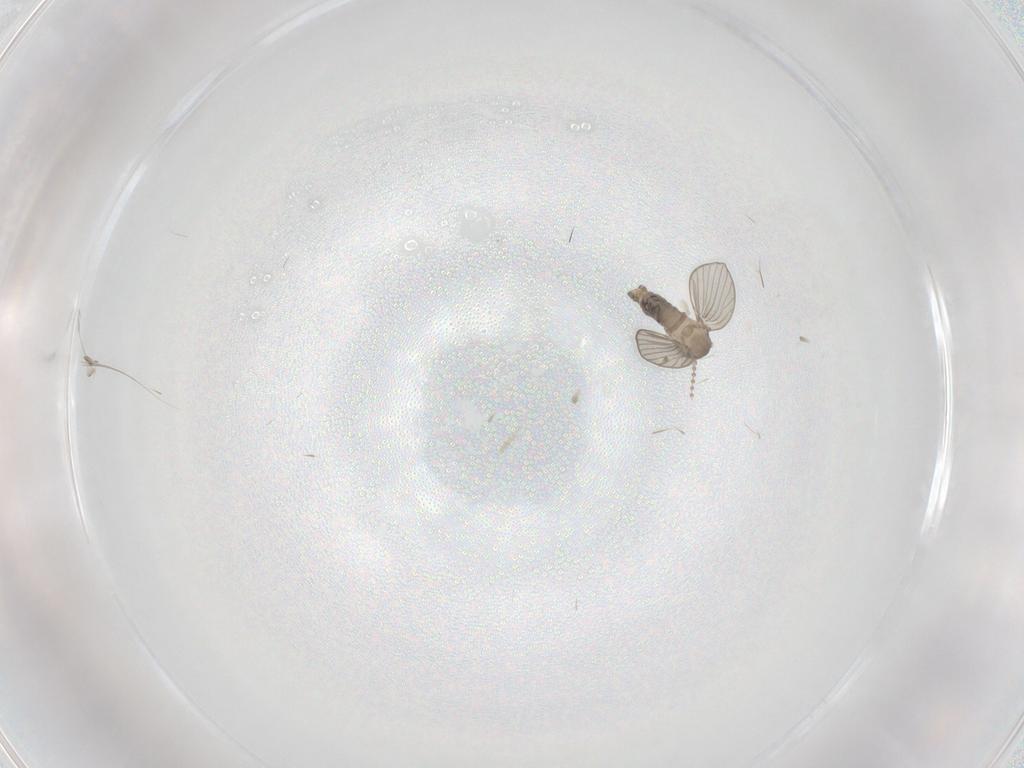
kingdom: Animalia
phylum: Arthropoda
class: Insecta
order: Diptera
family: Psychodidae
